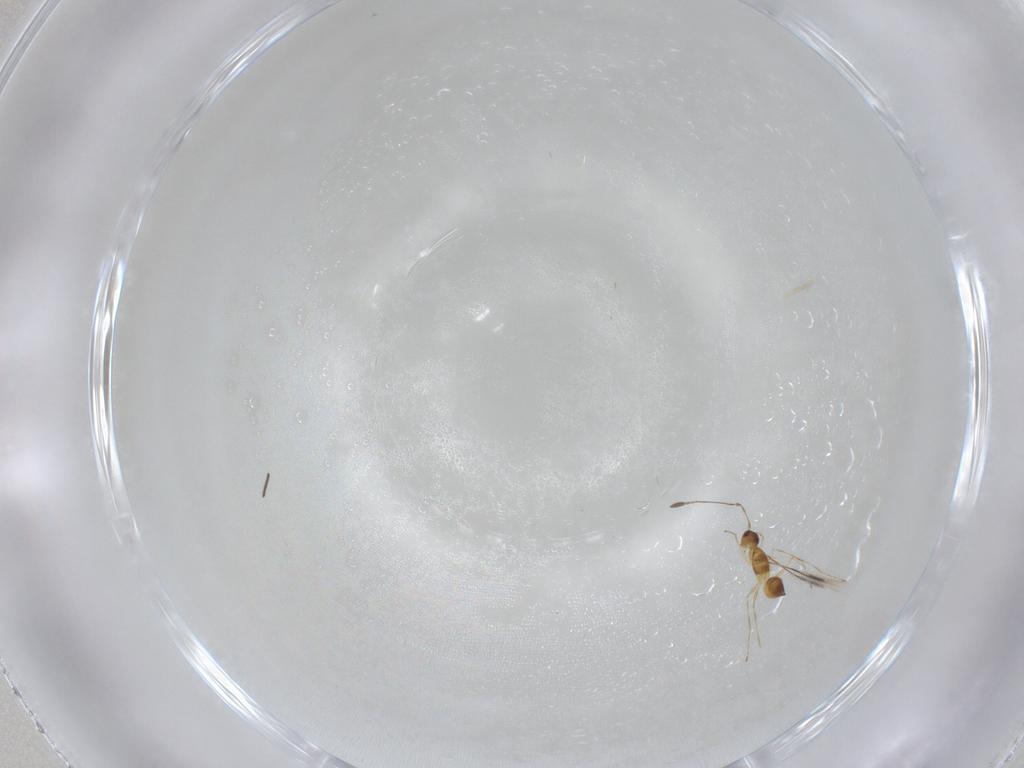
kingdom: Animalia
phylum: Arthropoda
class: Insecta
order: Hymenoptera
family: Mymaridae
